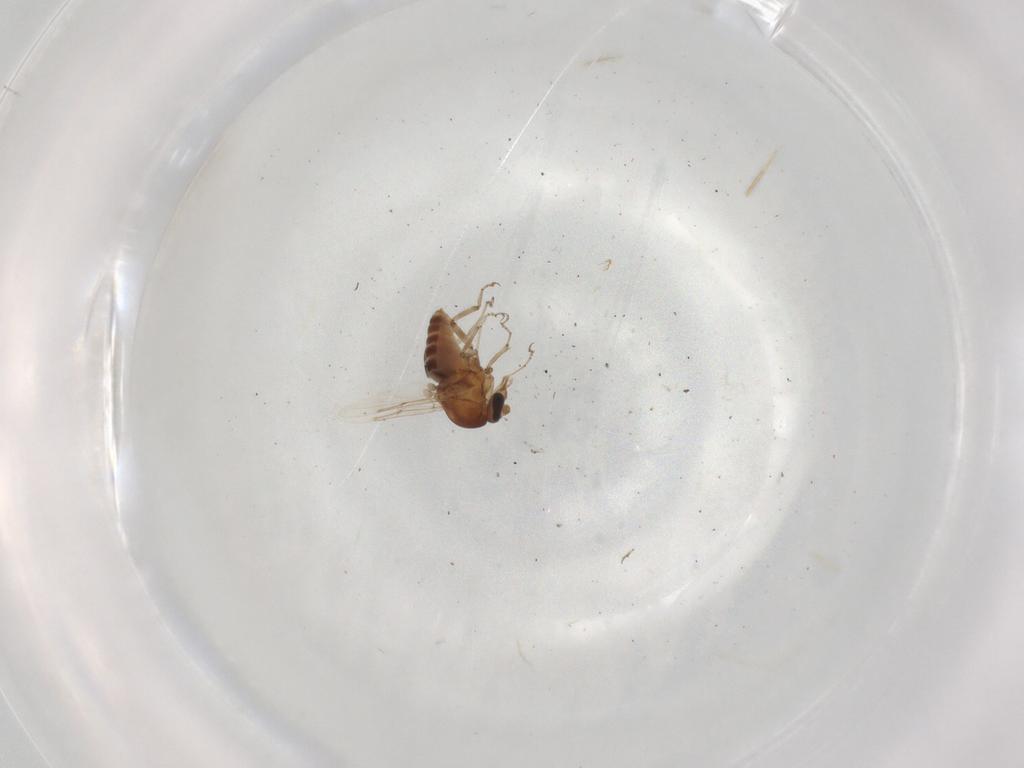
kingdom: Animalia
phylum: Arthropoda
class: Insecta
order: Diptera
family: Ceratopogonidae
